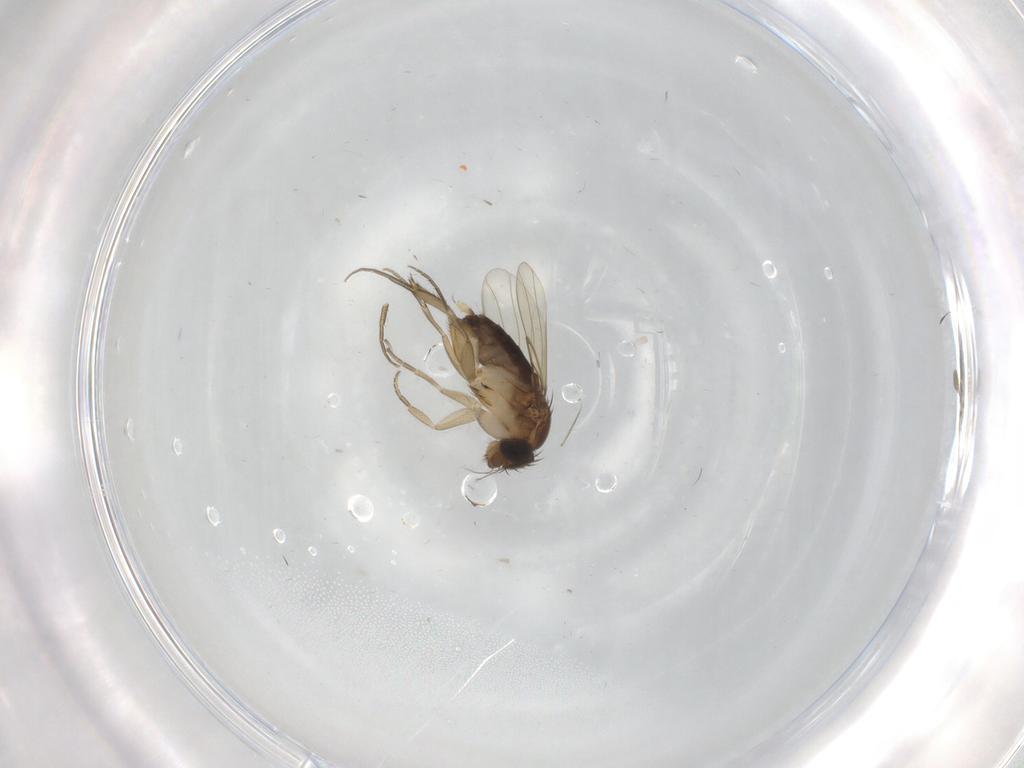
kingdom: Animalia
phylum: Arthropoda
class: Insecta
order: Diptera
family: Phoridae
